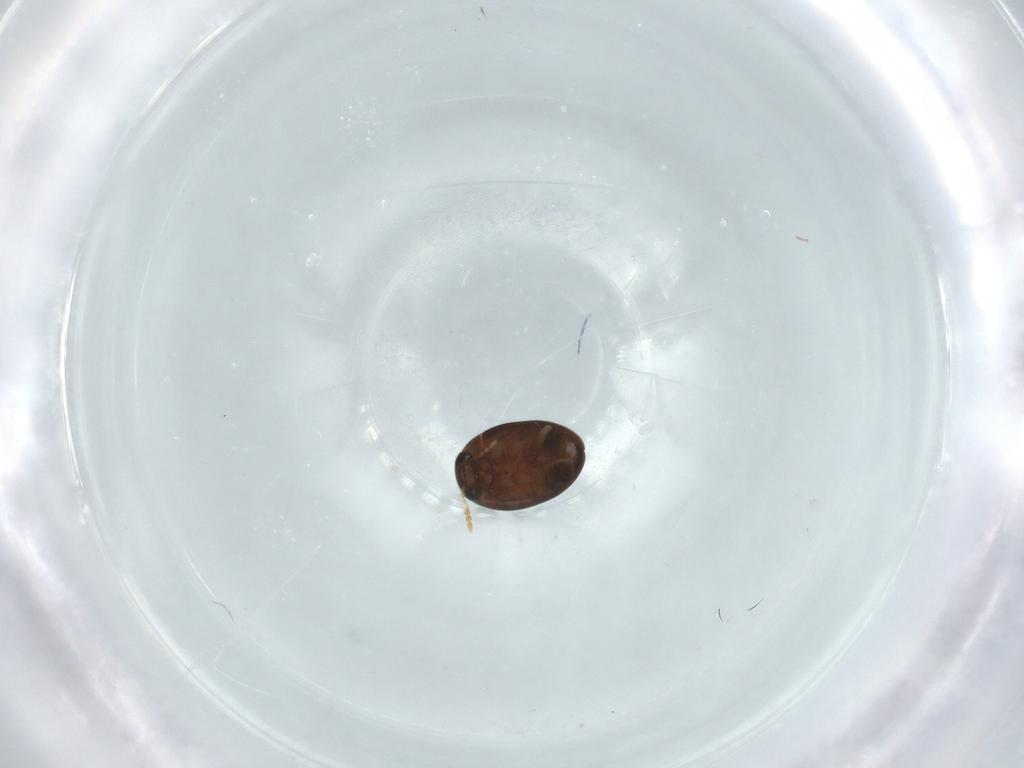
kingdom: Animalia
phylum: Arthropoda
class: Insecta
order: Coleoptera
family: Phalacridae
